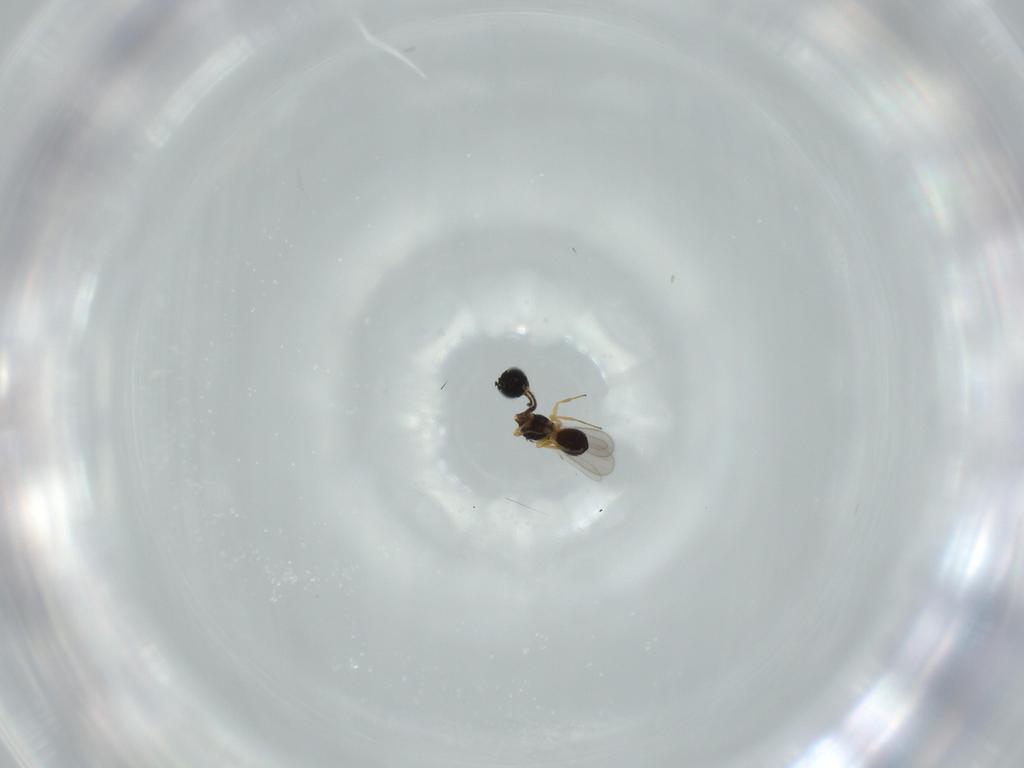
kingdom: Animalia
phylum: Arthropoda
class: Insecta
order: Hymenoptera
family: Scelionidae
